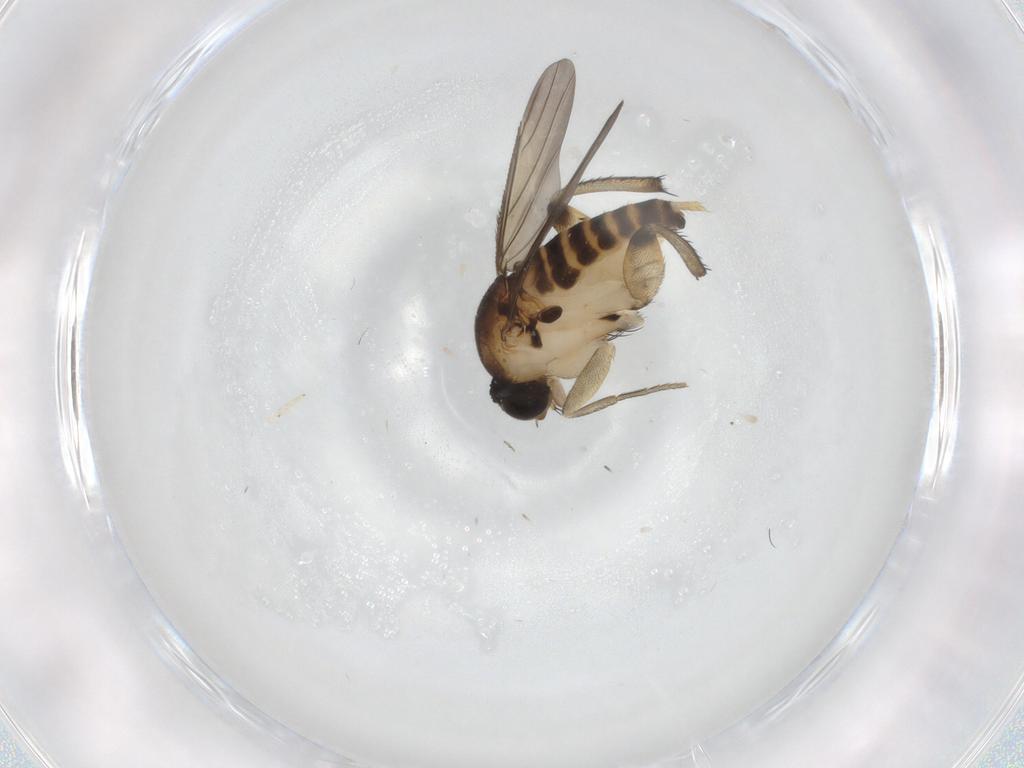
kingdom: Animalia
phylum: Arthropoda
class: Insecta
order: Diptera
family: Phoridae
